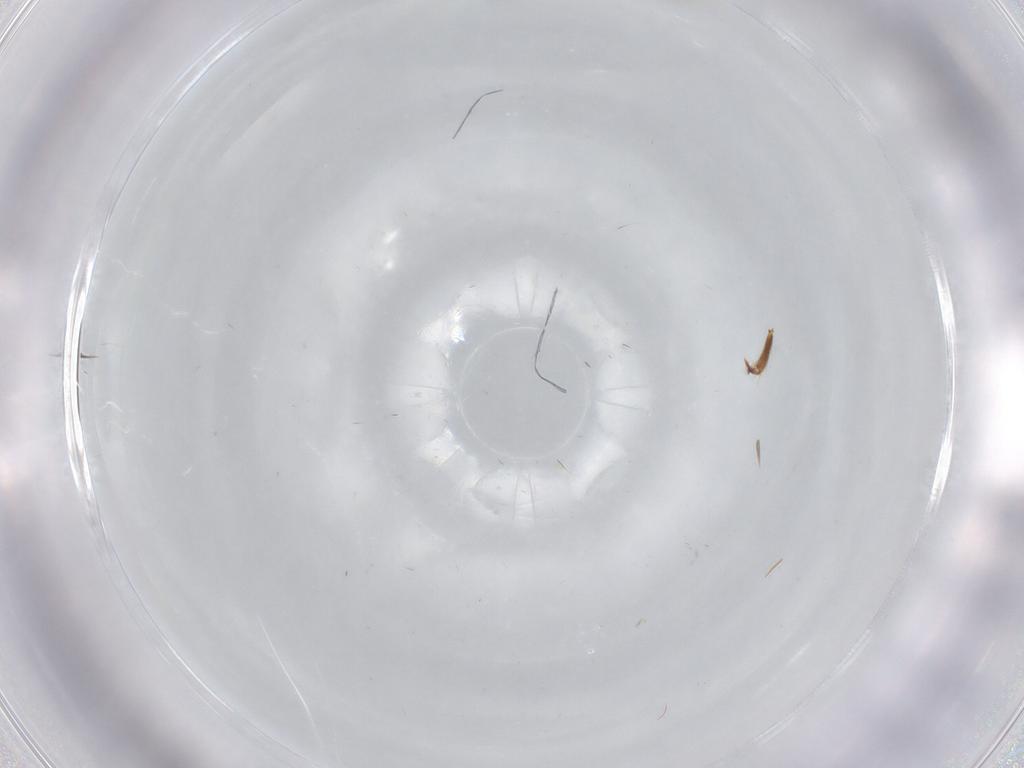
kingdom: Animalia
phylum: Arthropoda
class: Insecta
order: Hymenoptera
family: Formicidae
